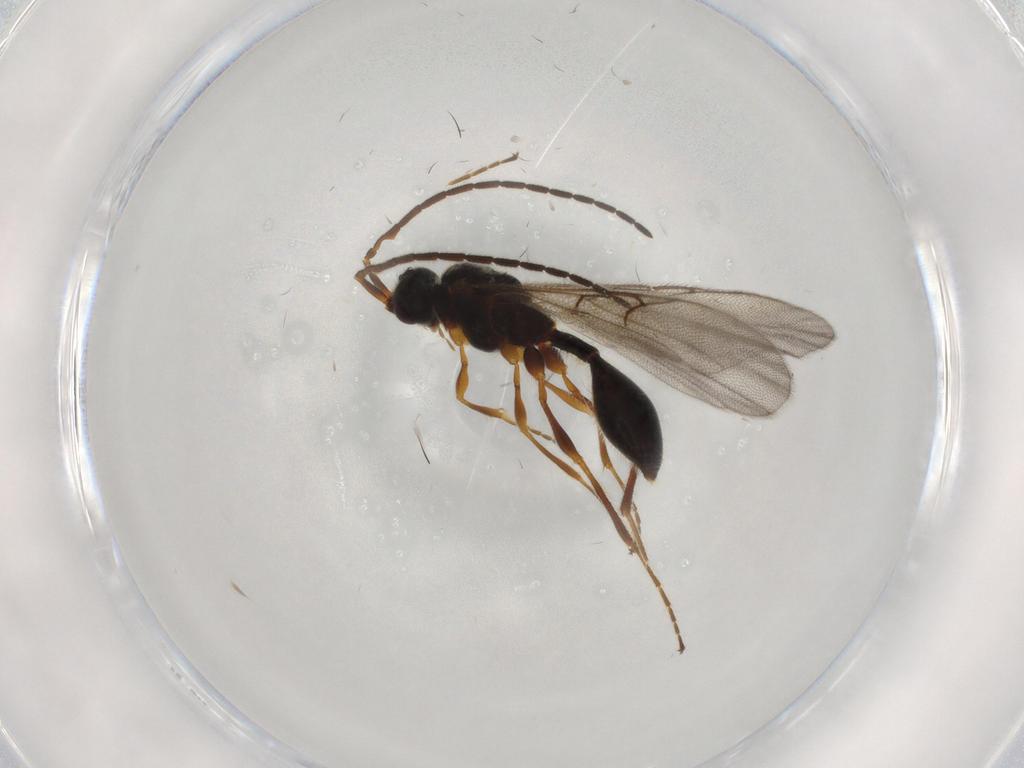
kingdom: Animalia
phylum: Arthropoda
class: Insecta
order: Hymenoptera
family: Diapriidae
